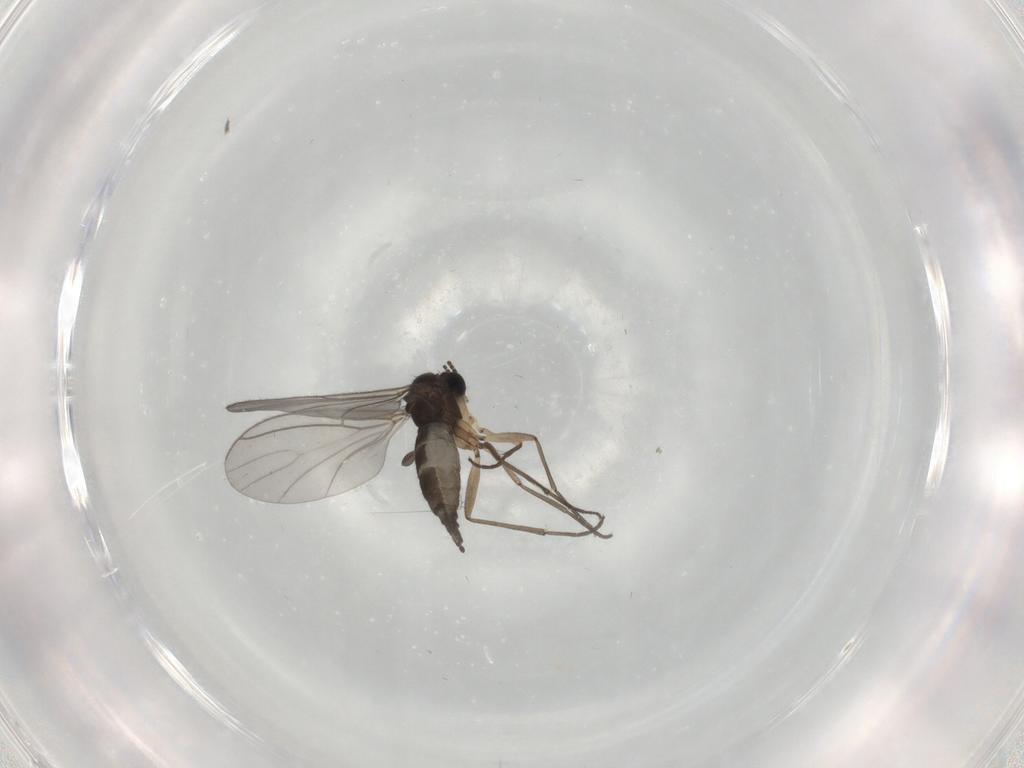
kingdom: Animalia
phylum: Arthropoda
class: Insecta
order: Diptera
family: Sciaridae
